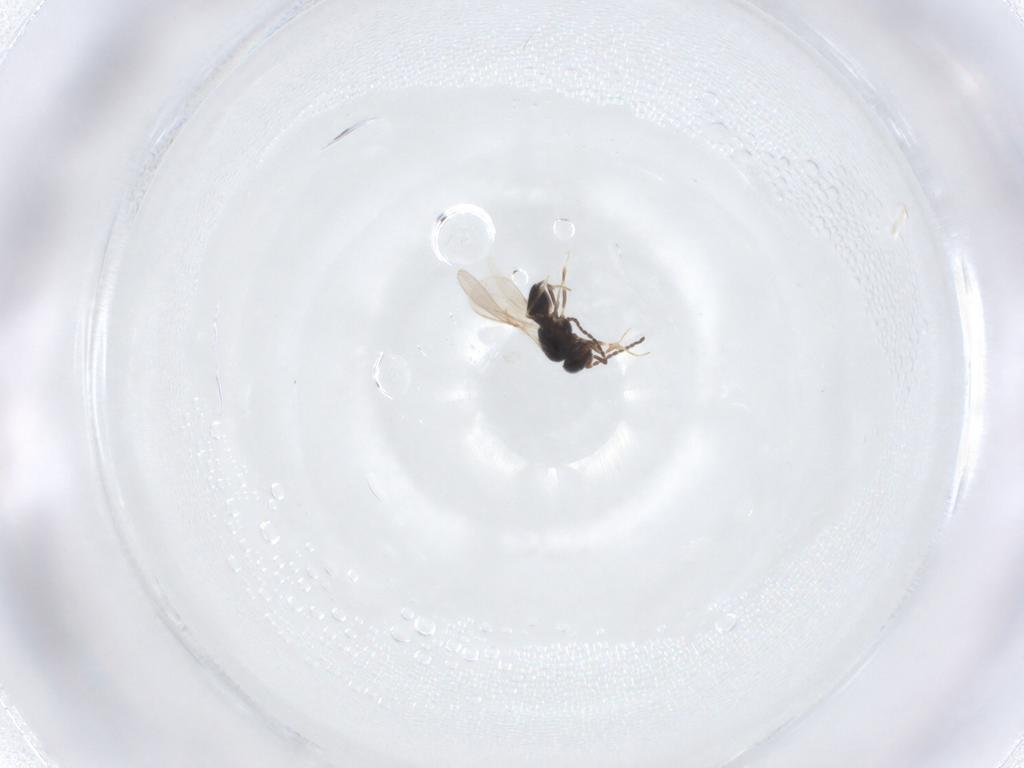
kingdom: Animalia
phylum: Arthropoda
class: Insecta
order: Hymenoptera
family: Scelionidae
